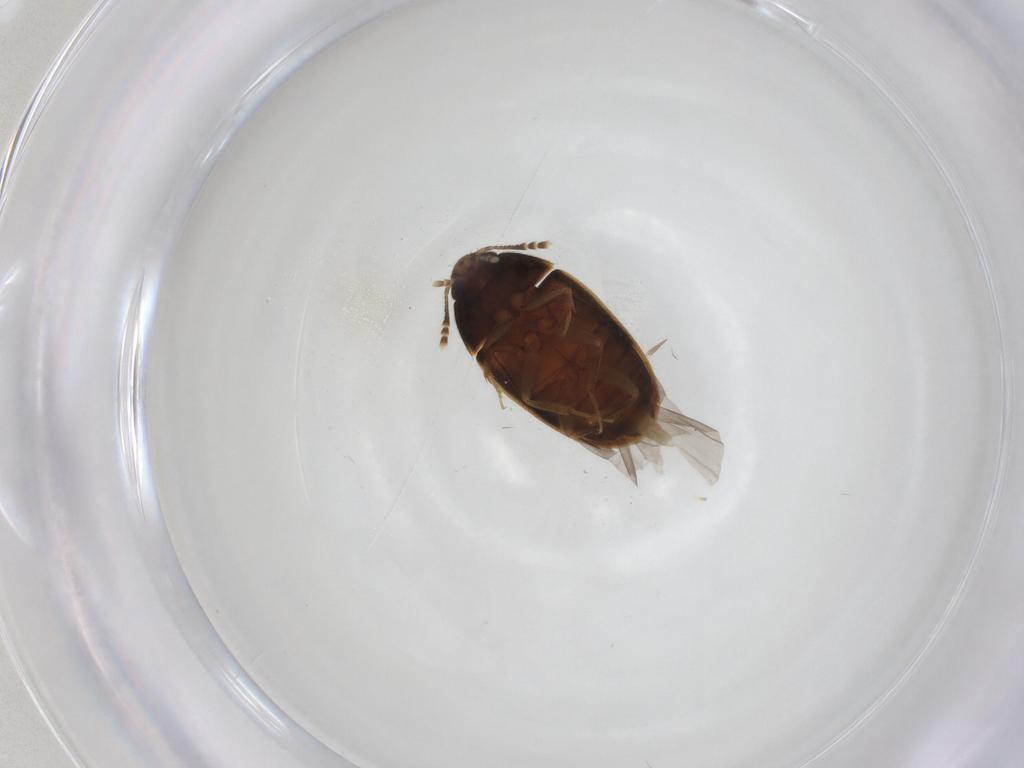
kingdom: Animalia
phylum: Arthropoda
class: Insecta
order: Coleoptera
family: Mycetophagidae
